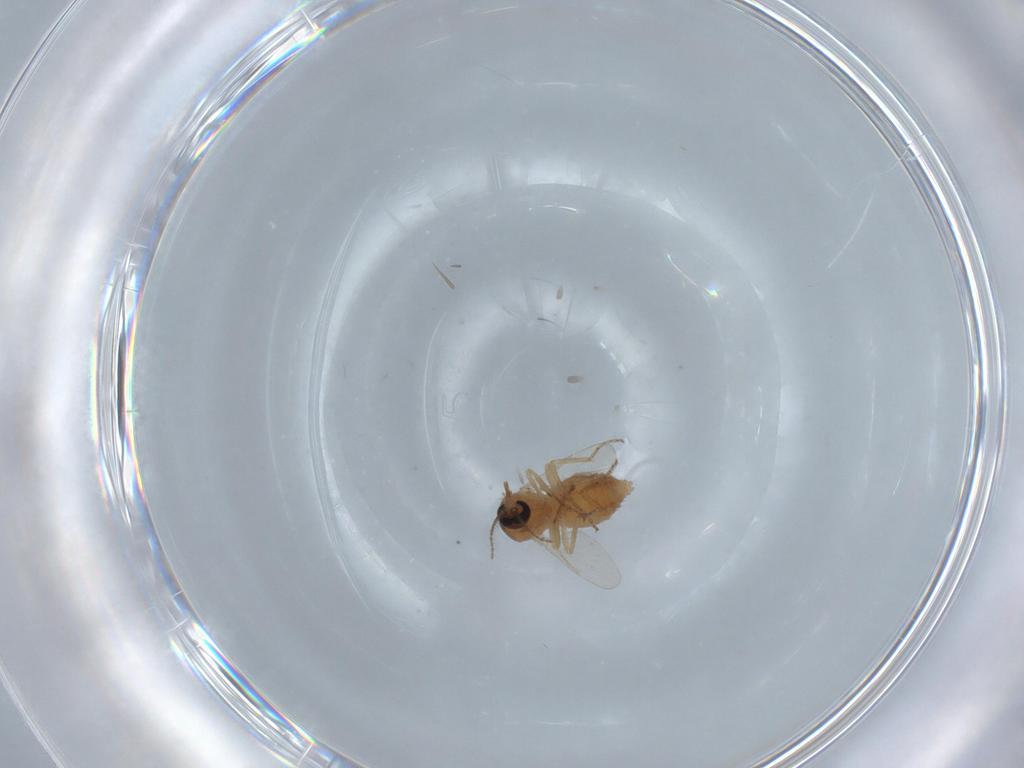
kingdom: Animalia
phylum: Arthropoda
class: Insecta
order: Diptera
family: Ceratopogonidae
